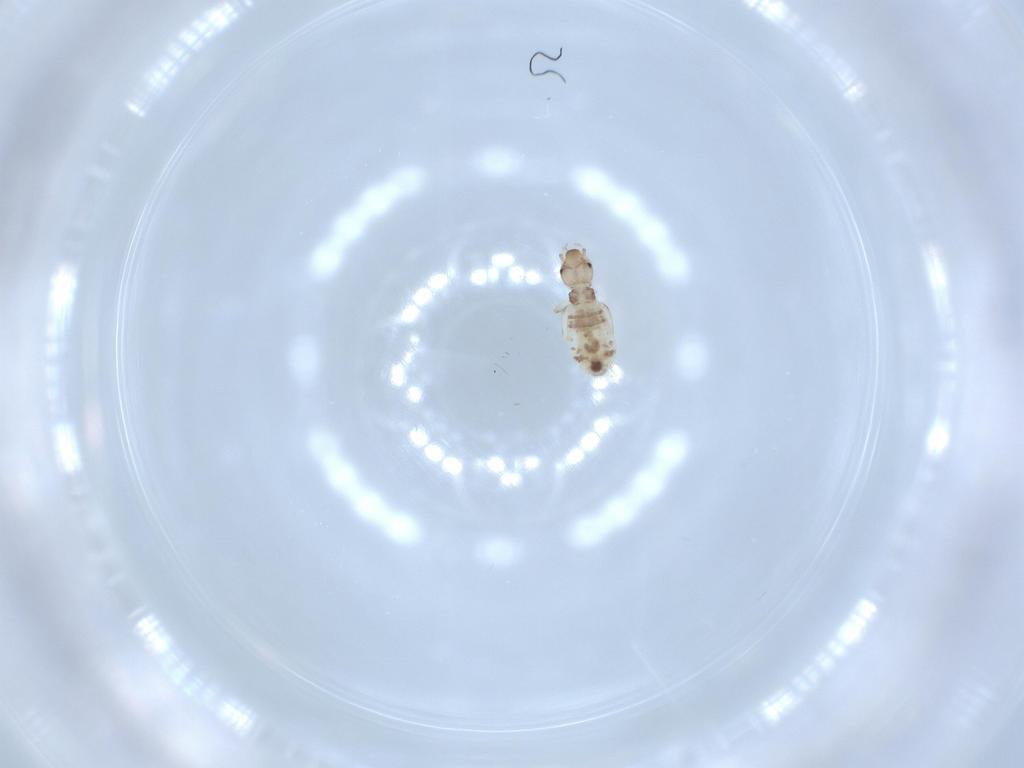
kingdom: Animalia
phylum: Arthropoda
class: Insecta
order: Psocodea
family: Liposcelididae
